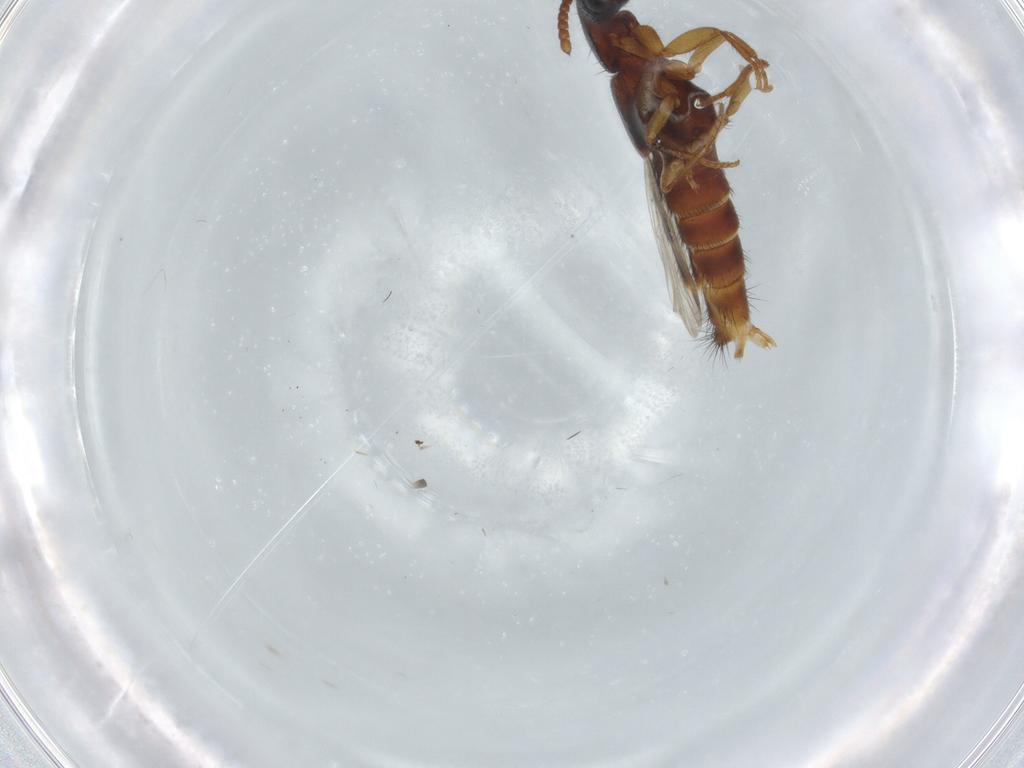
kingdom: Animalia
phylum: Arthropoda
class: Insecta
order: Coleoptera
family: Staphylinidae
